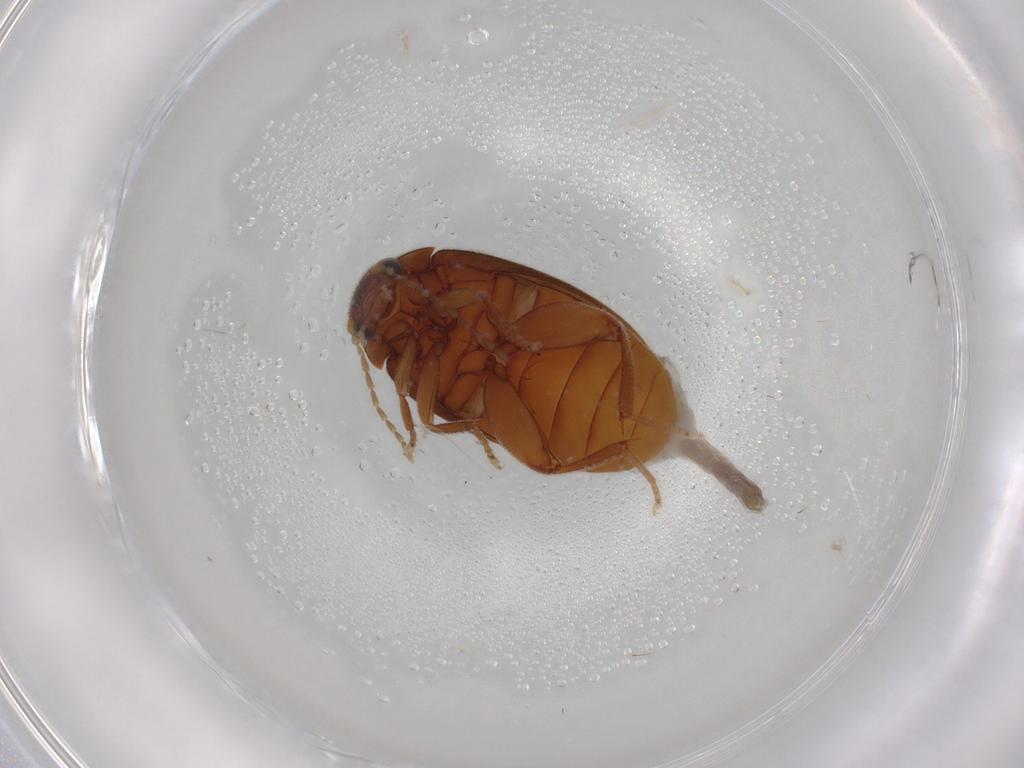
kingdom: Animalia
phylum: Arthropoda
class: Insecta
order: Coleoptera
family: Scirtidae
